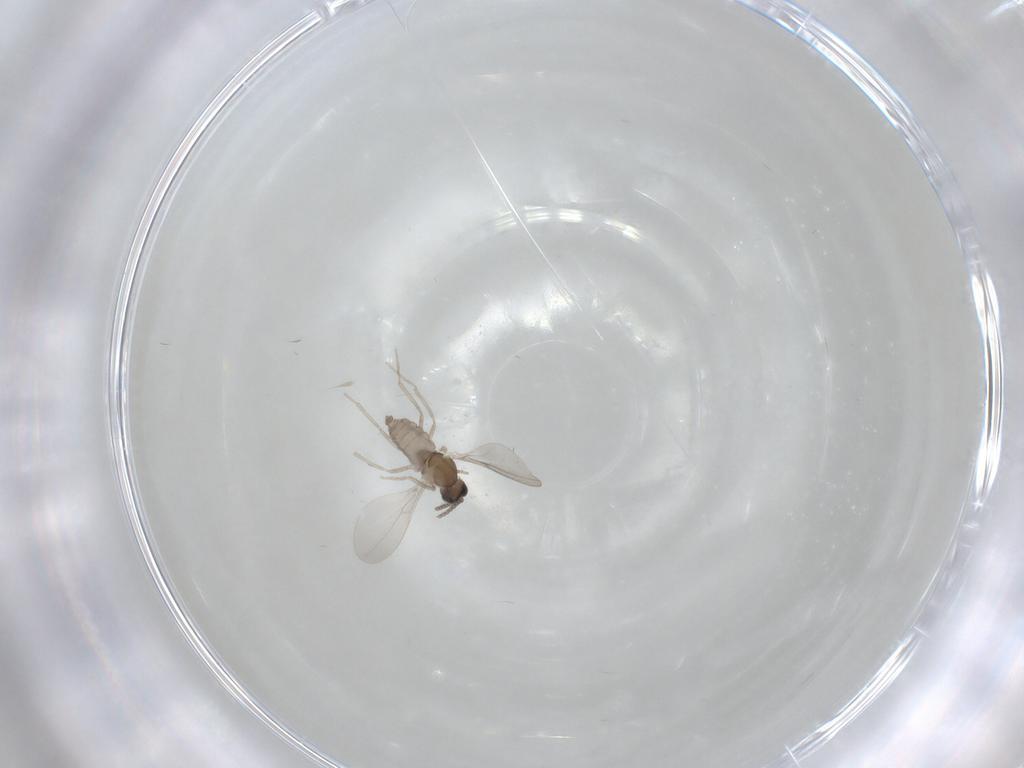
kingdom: Animalia
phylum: Arthropoda
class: Insecta
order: Diptera
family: Cecidomyiidae
